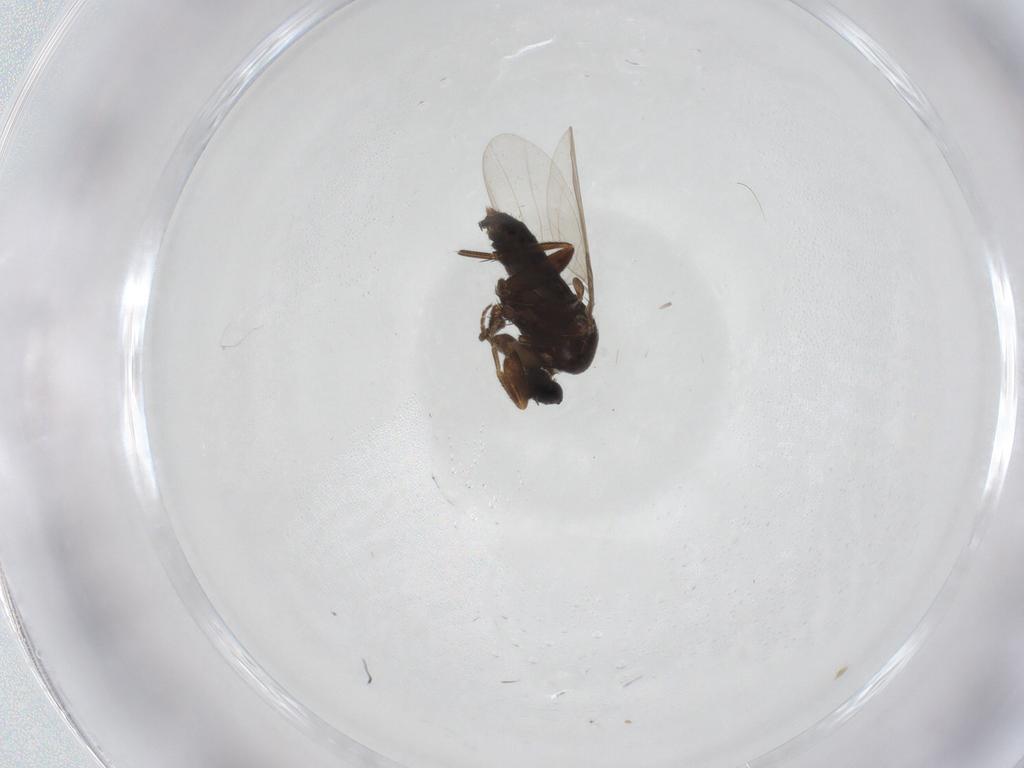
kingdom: Animalia
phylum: Arthropoda
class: Insecta
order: Diptera
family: Phoridae
